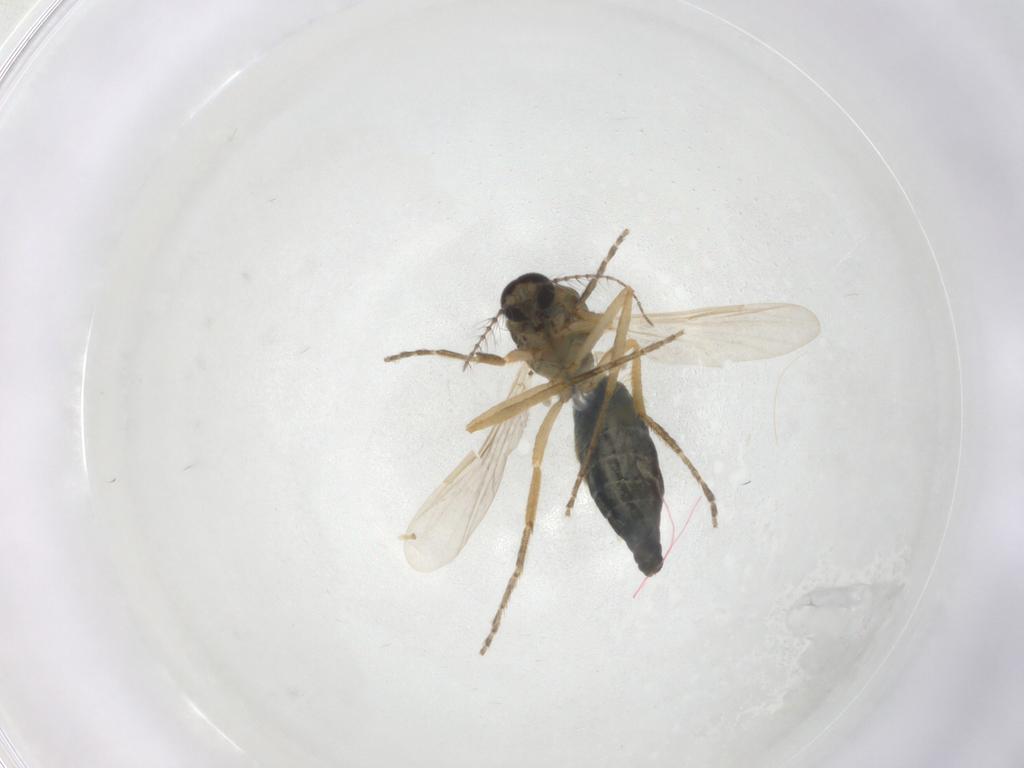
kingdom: Animalia
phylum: Arthropoda
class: Insecta
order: Diptera
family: Ceratopogonidae
